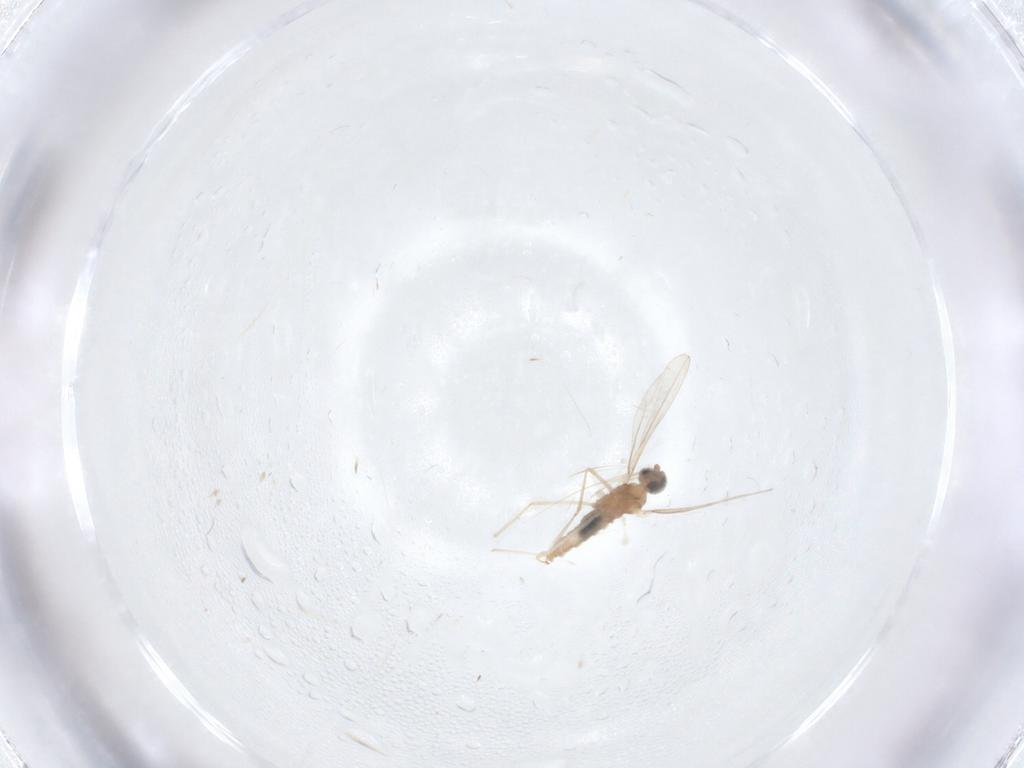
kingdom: Animalia
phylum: Arthropoda
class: Insecta
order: Diptera
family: Cecidomyiidae
